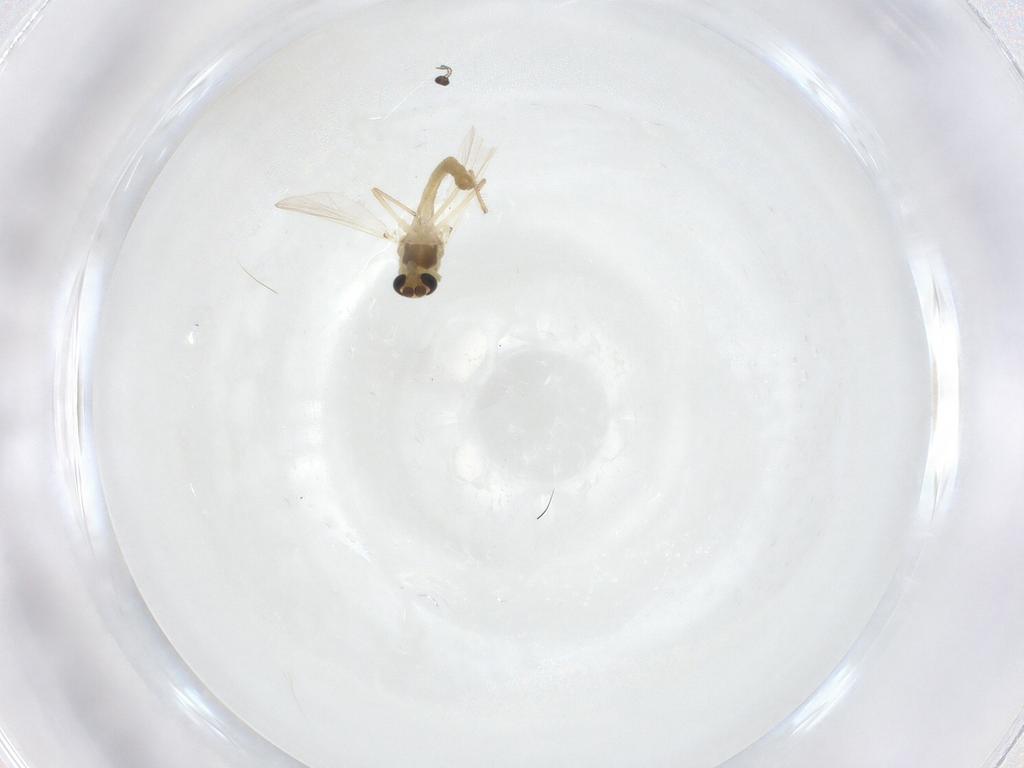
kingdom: Animalia
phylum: Arthropoda
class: Insecta
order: Diptera
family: Chironomidae
